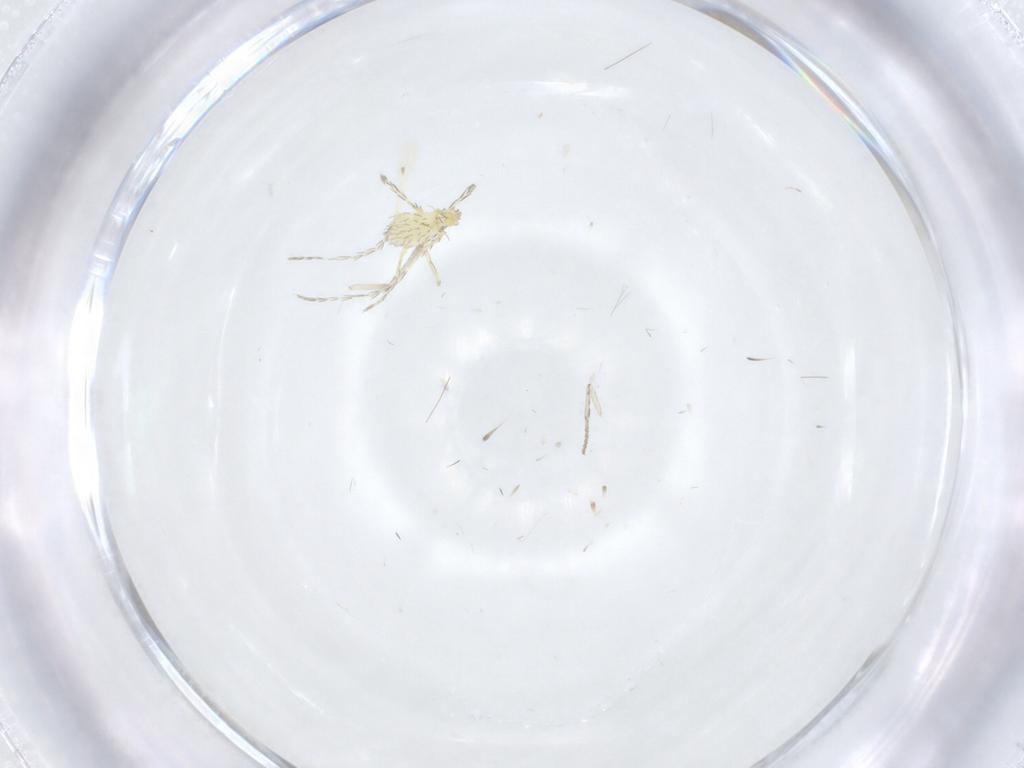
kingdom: Animalia
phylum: Arthropoda
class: Insecta
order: Diptera
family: Psychodidae
